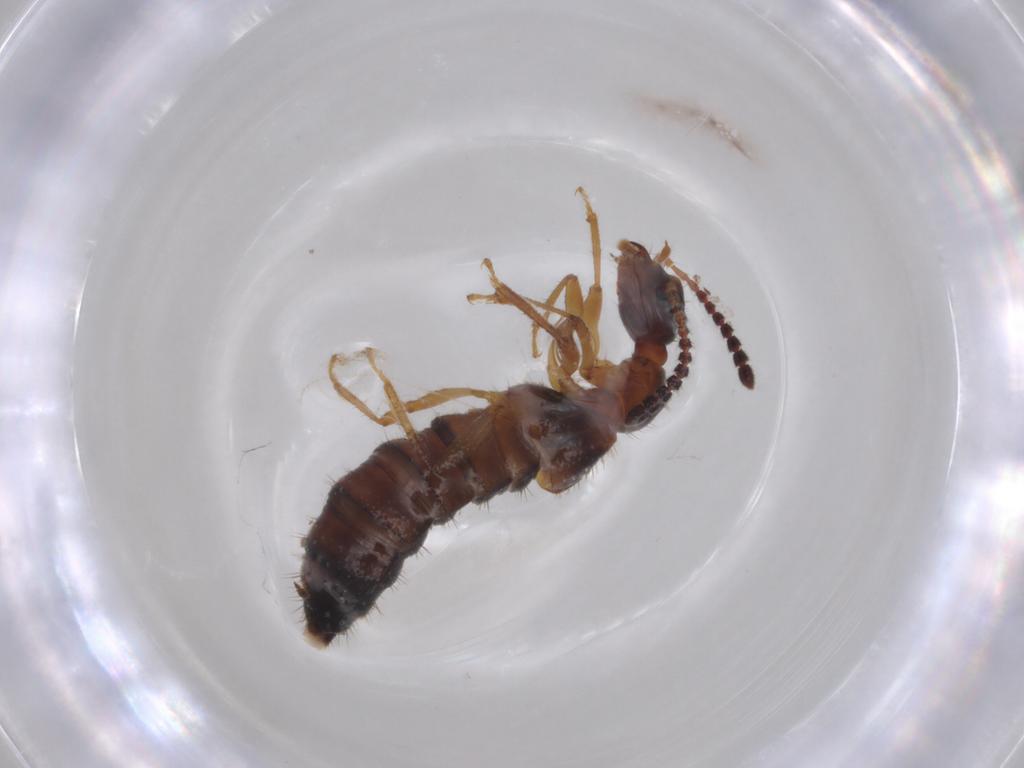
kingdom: Animalia
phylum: Arthropoda
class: Insecta
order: Coleoptera
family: Staphylinidae
